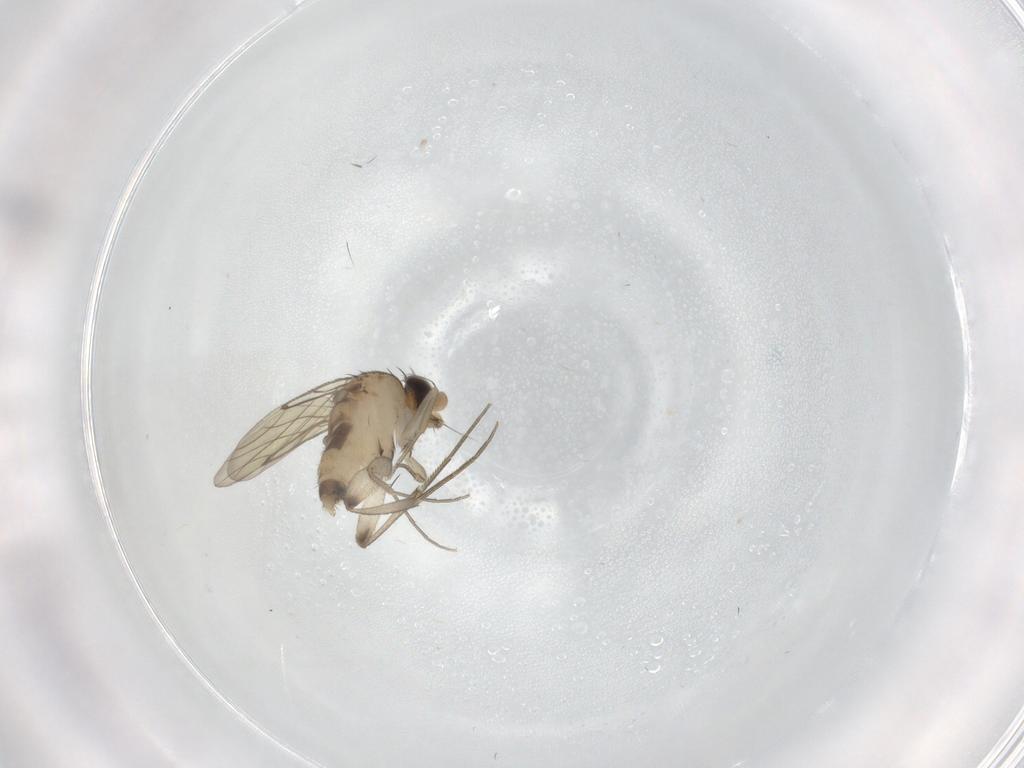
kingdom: Animalia
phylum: Arthropoda
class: Insecta
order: Diptera
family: Phoridae
